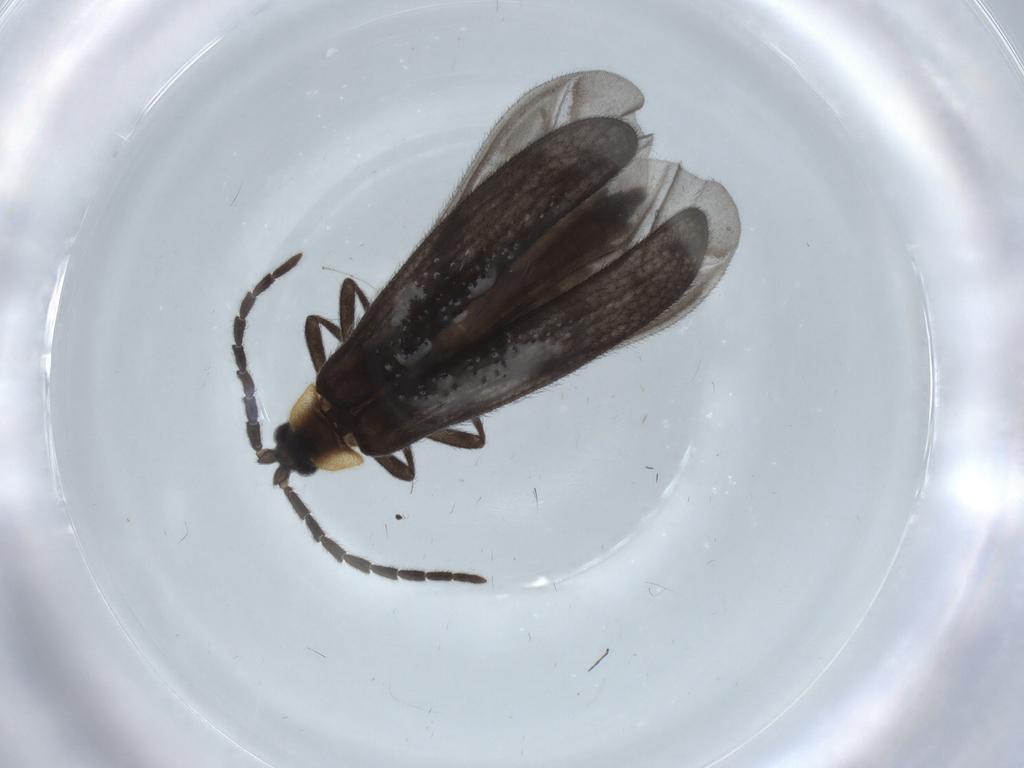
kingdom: Animalia
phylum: Arthropoda
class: Insecta
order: Coleoptera
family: Lycidae
